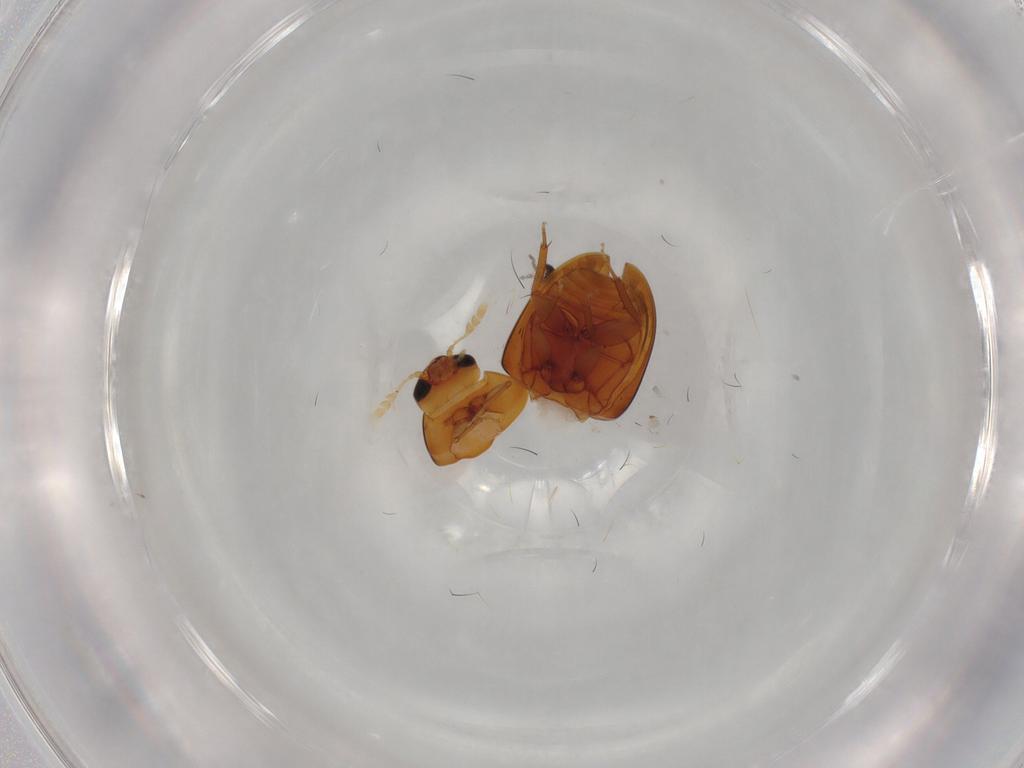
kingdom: Animalia
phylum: Arthropoda
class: Insecta
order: Coleoptera
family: Phalacridae
